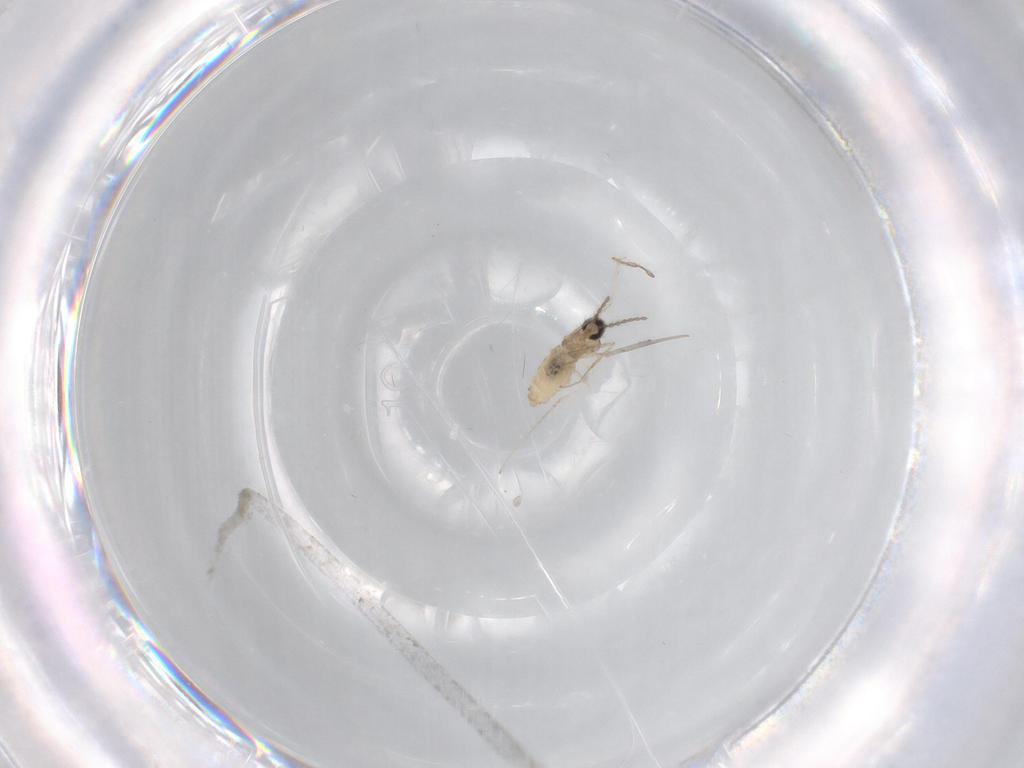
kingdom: Animalia
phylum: Arthropoda
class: Insecta
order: Diptera
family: Cecidomyiidae
